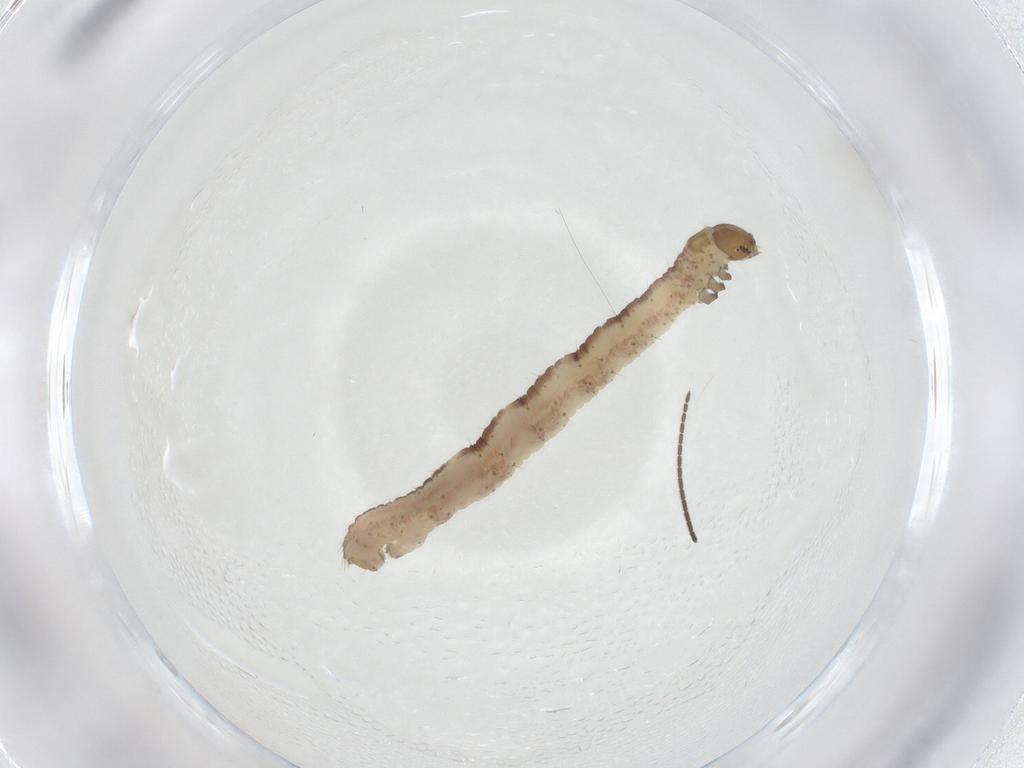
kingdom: Animalia
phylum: Arthropoda
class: Insecta
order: Lepidoptera
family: Geometridae
